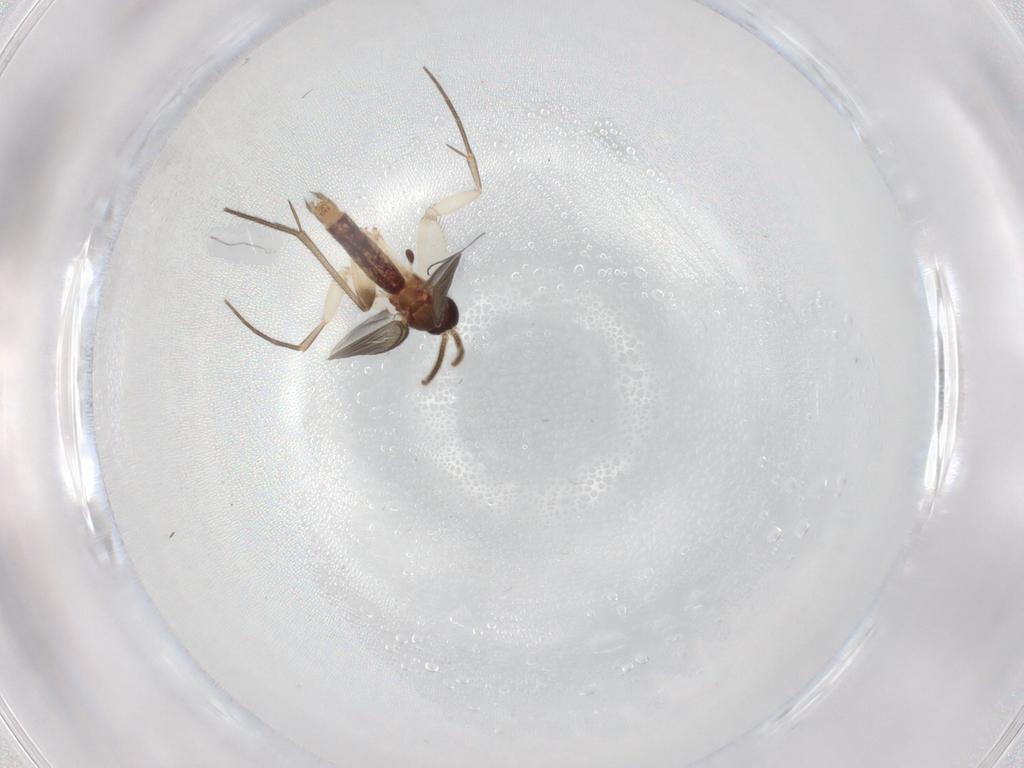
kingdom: Animalia
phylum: Arthropoda
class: Insecta
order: Diptera
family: Mycetophilidae
